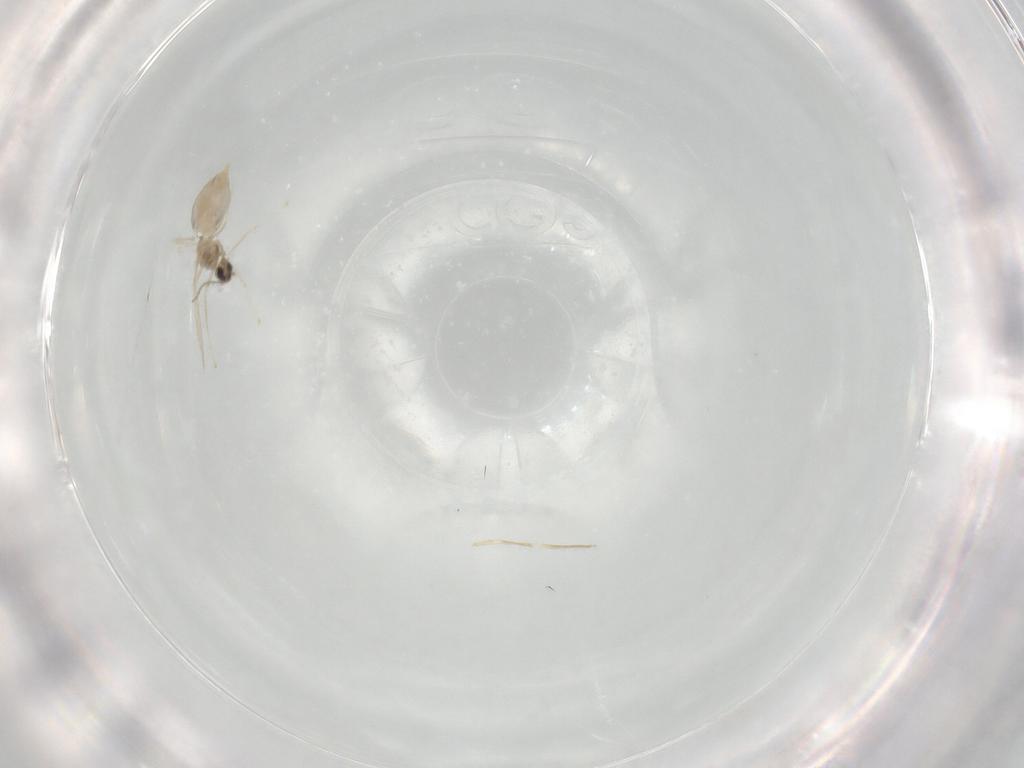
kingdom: Animalia
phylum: Arthropoda
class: Insecta
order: Diptera
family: Cecidomyiidae
